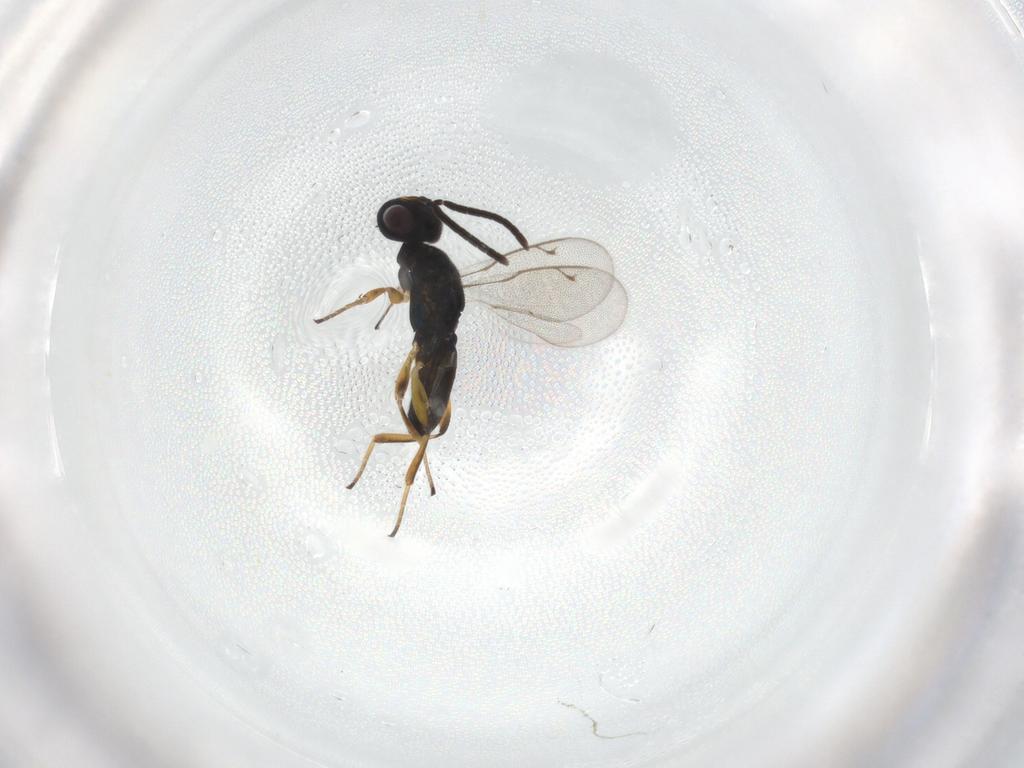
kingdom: Animalia
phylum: Arthropoda
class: Insecta
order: Hymenoptera
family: Eupelmidae
